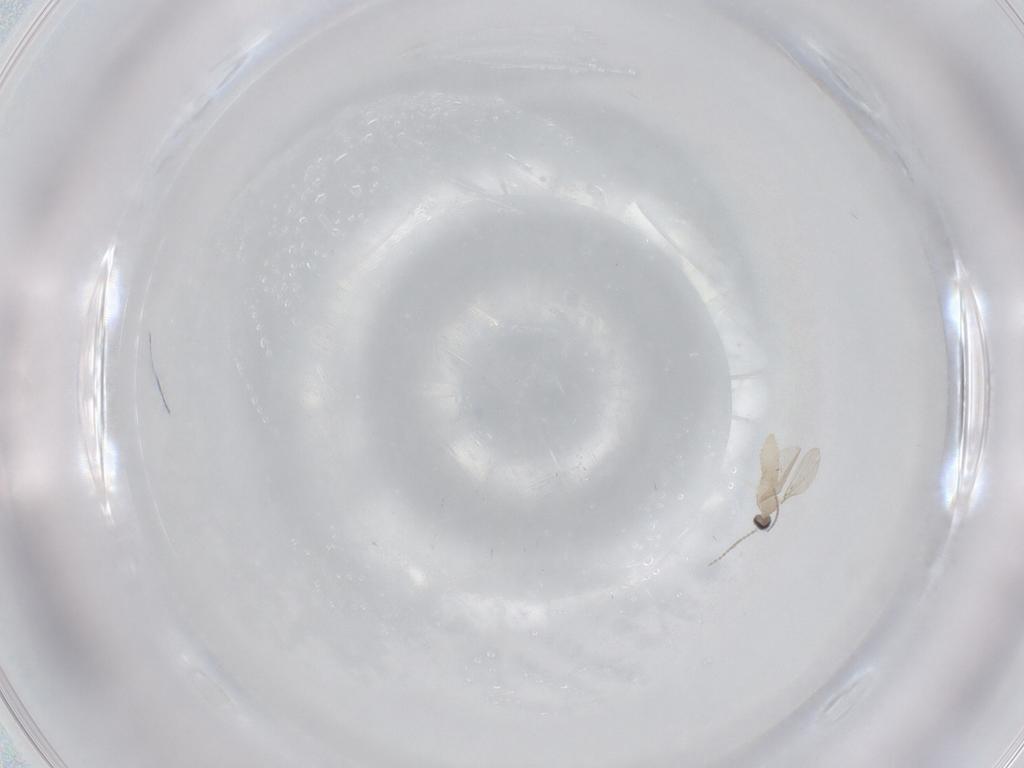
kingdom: Animalia
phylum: Arthropoda
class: Insecta
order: Diptera
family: Cecidomyiidae
